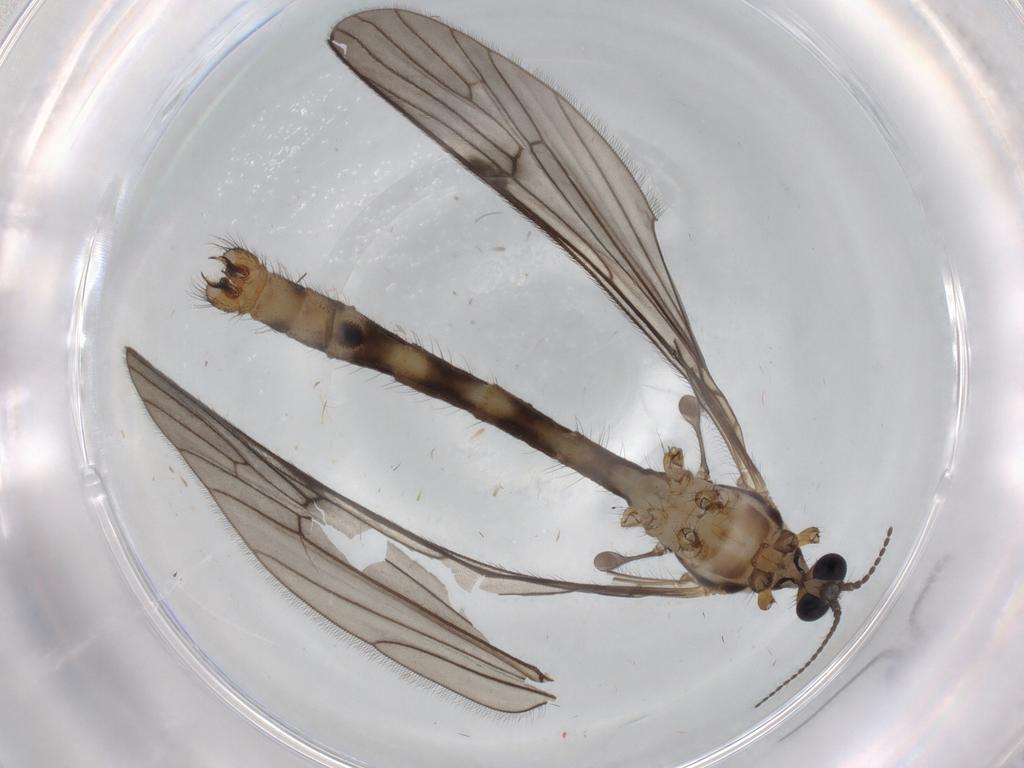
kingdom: Animalia
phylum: Arthropoda
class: Insecta
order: Diptera
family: Limoniidae
